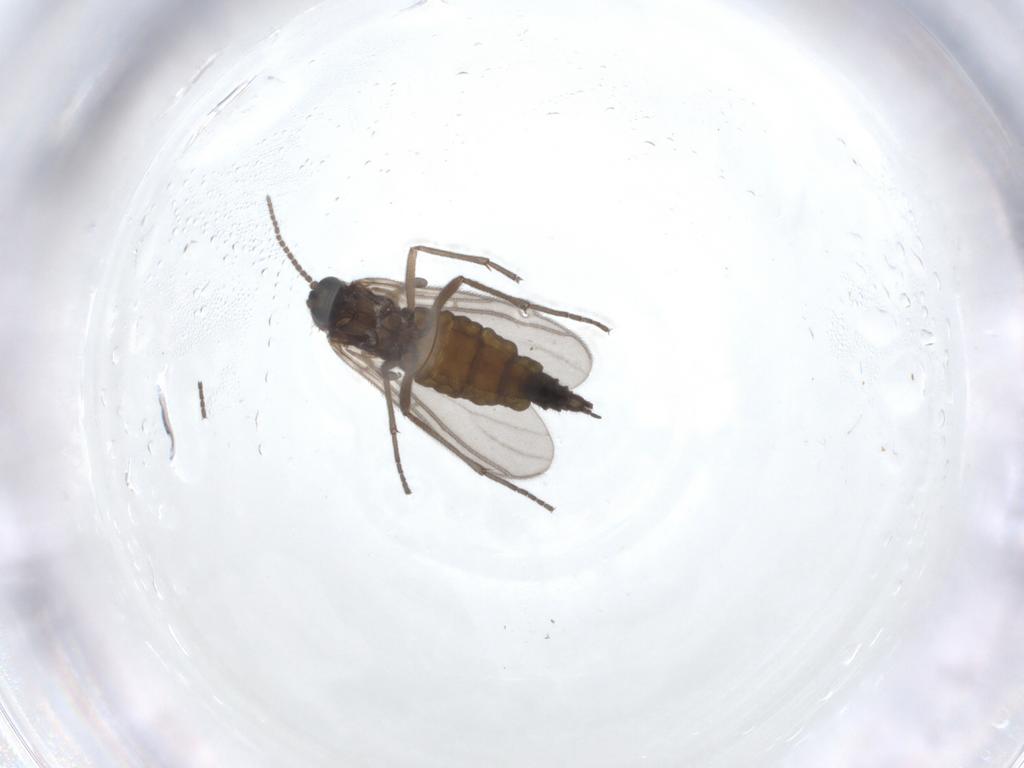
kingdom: Animalia
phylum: Arthropoda
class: Insecta
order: Diptera
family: Sciaridae
